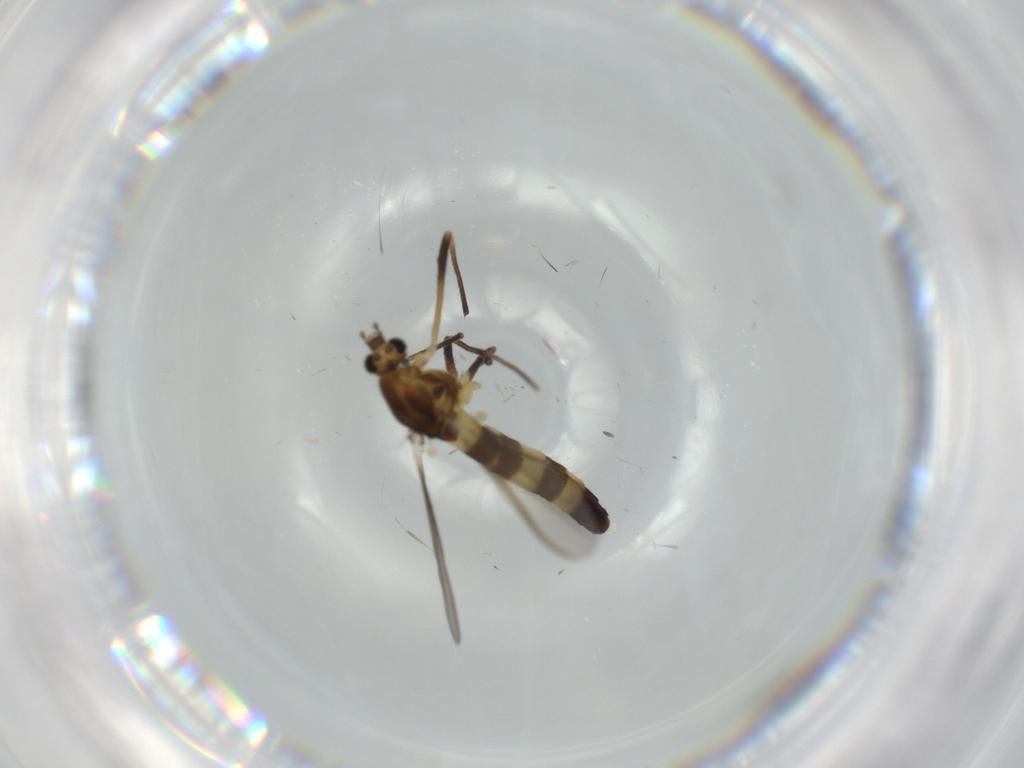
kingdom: Animalia
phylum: Arthropoda
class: Insecta
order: Diptera
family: Chironomidae
